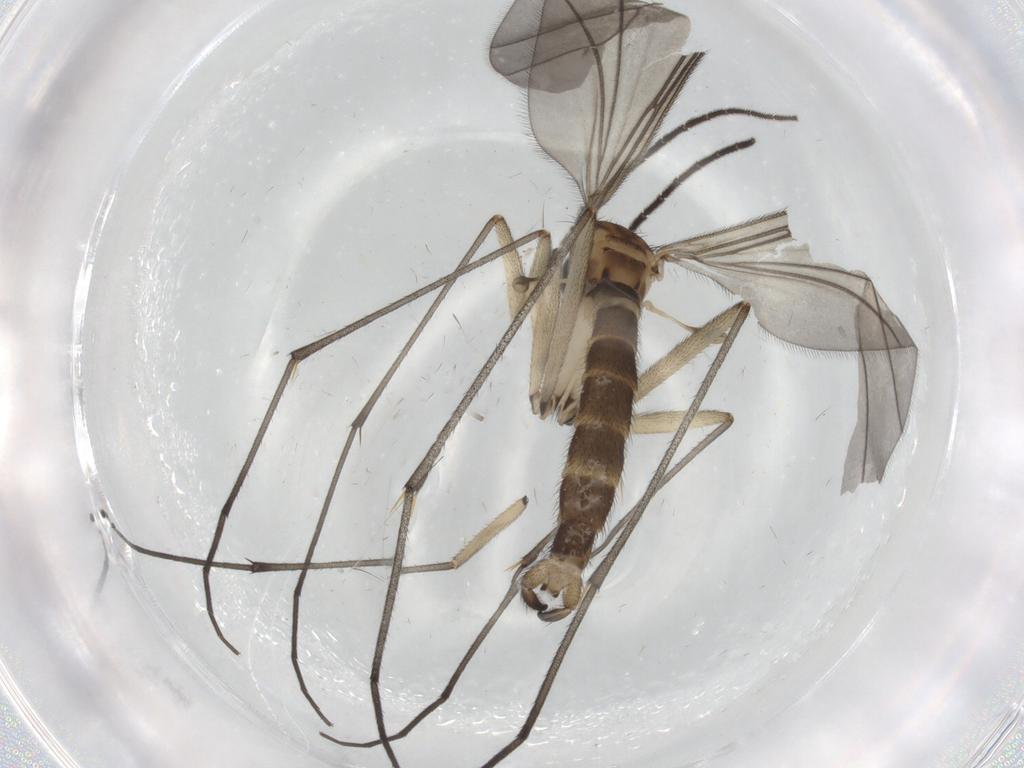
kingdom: Animalia
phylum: Arthropoda
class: Insecta
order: Diptera
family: Sciaridae
